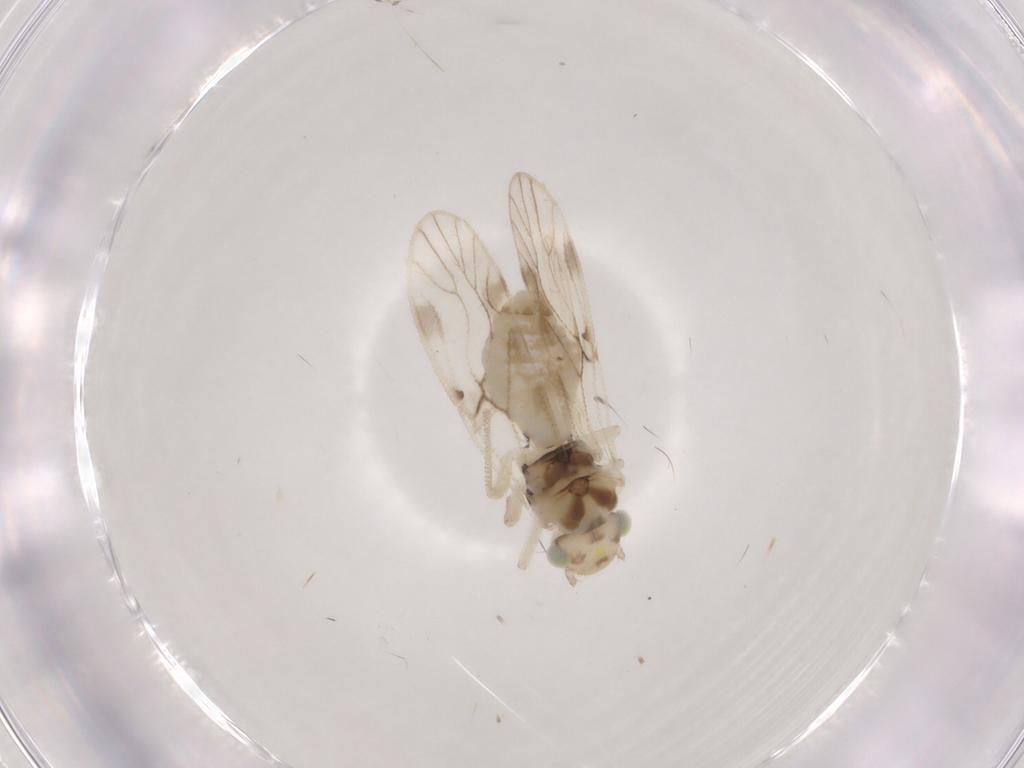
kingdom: Animalia
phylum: Arthropoda
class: Insecta
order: Psocodea
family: Caeciliusidae
